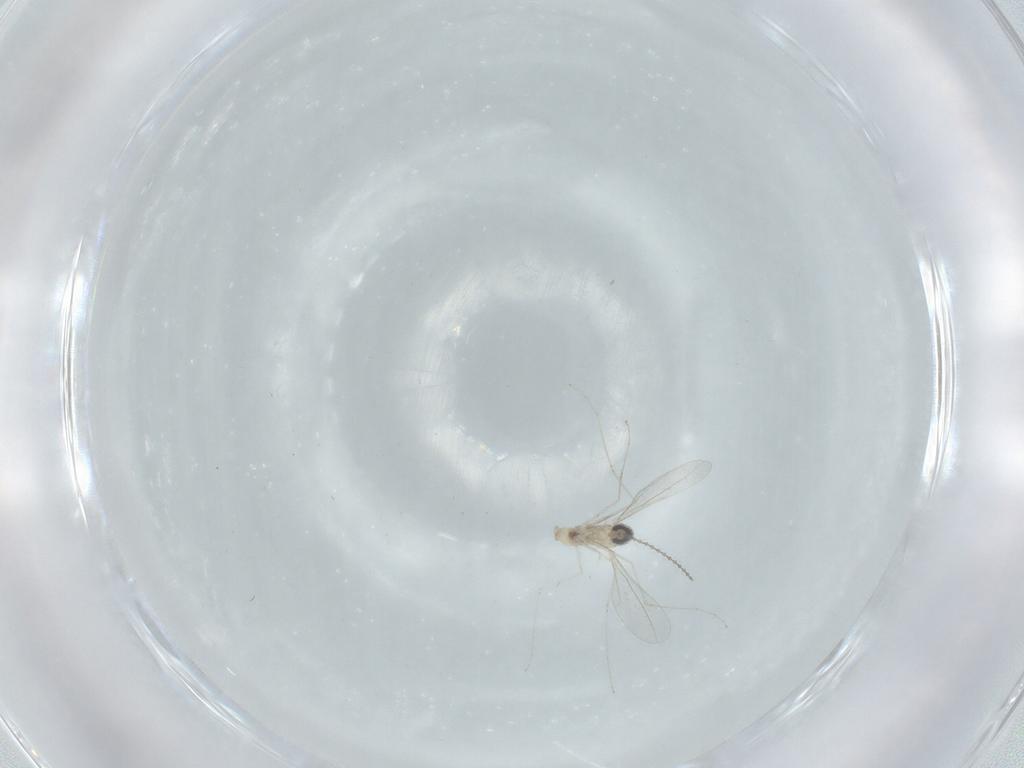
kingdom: Animalia
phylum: Arthropoda
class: Insecta
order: Diptera
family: Cecidomyiidae
